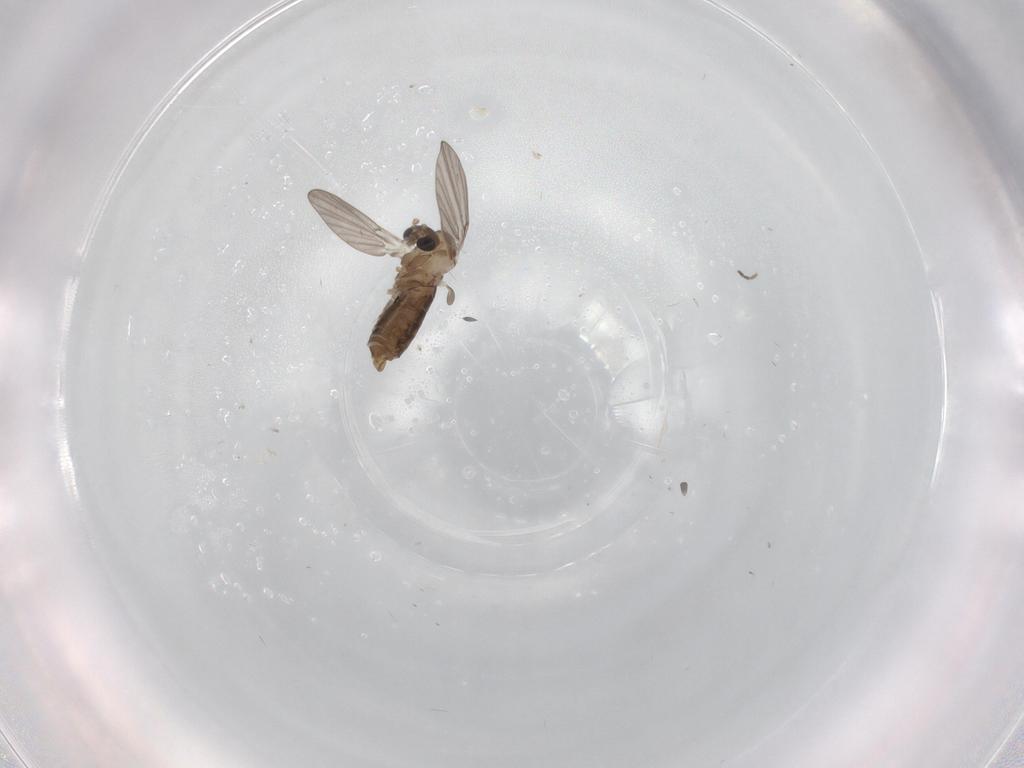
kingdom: Animalia
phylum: Arthropoda
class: Insecta
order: Diptera
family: Psychodidae
